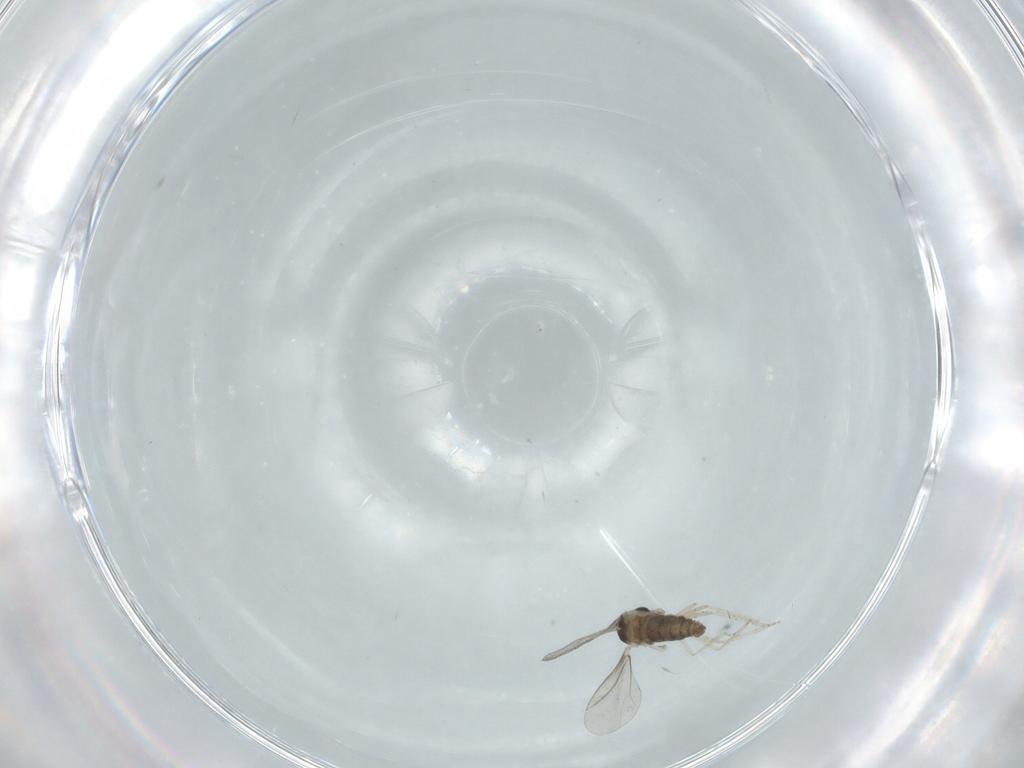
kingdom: Animalia
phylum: Arthropoda
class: Insecta
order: Diptera
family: Cecidomyiidae
